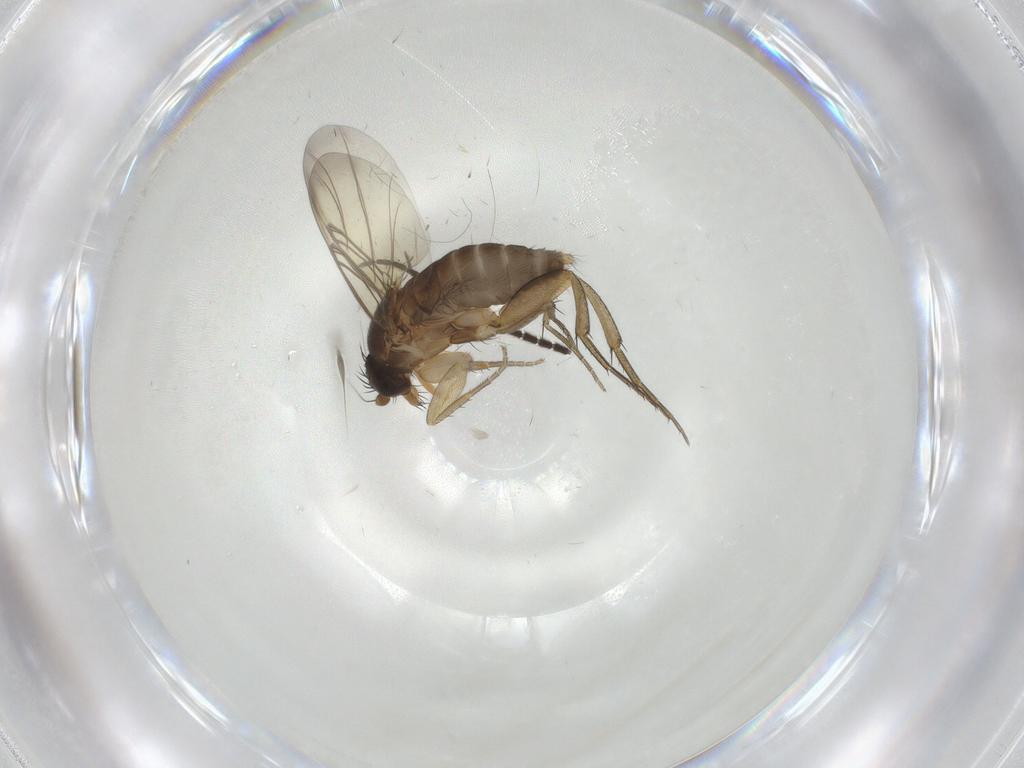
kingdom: Animalia
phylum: Arthropoda
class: Insecta
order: Diptera
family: Phoridae
